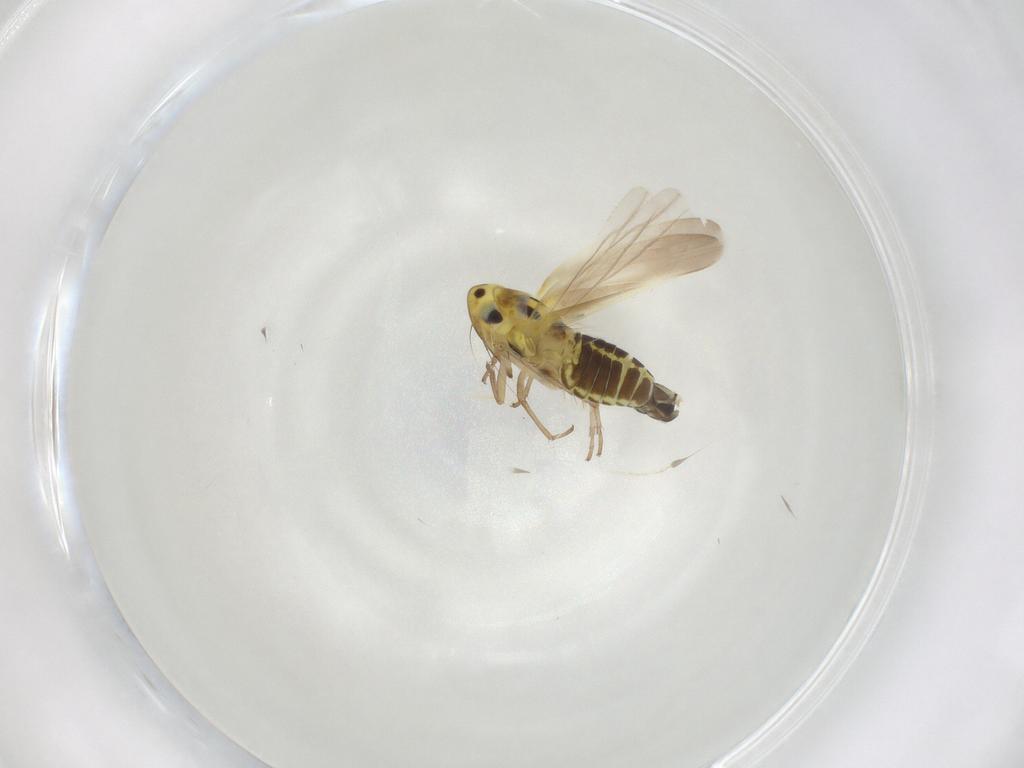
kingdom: Animalia
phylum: Arthropoda
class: Insecta
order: Hemiptera
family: Cicadellidae
